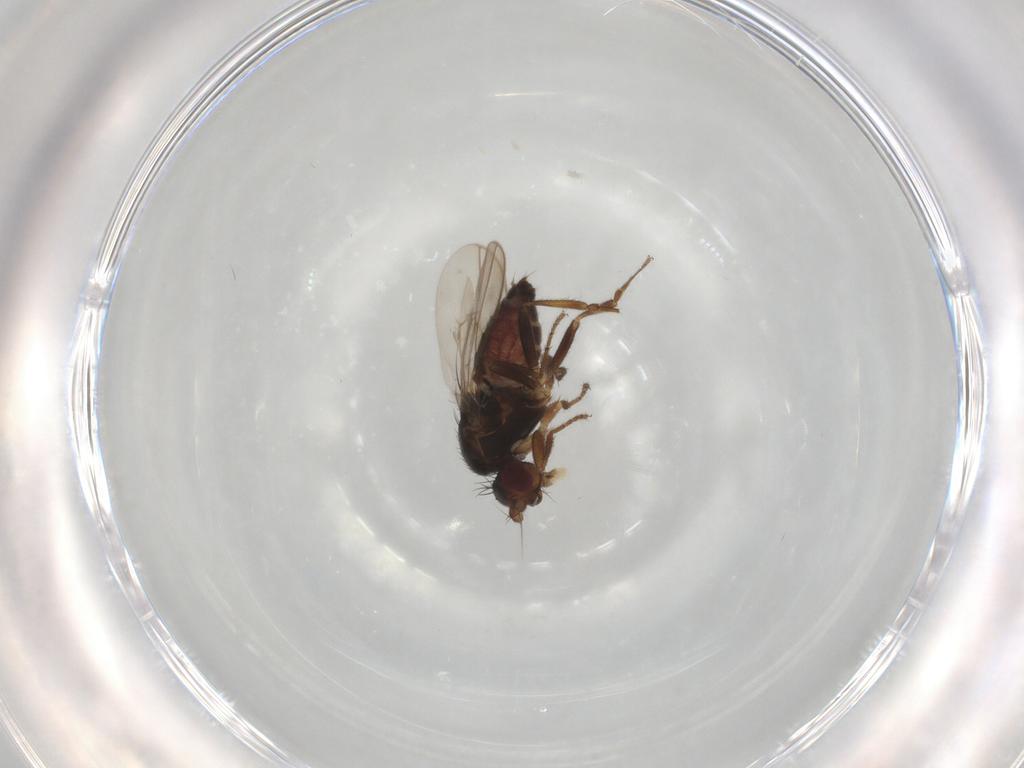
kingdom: Animalia
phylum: Arthropoda
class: Insecta
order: Diptera
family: Sphaeroceridae
